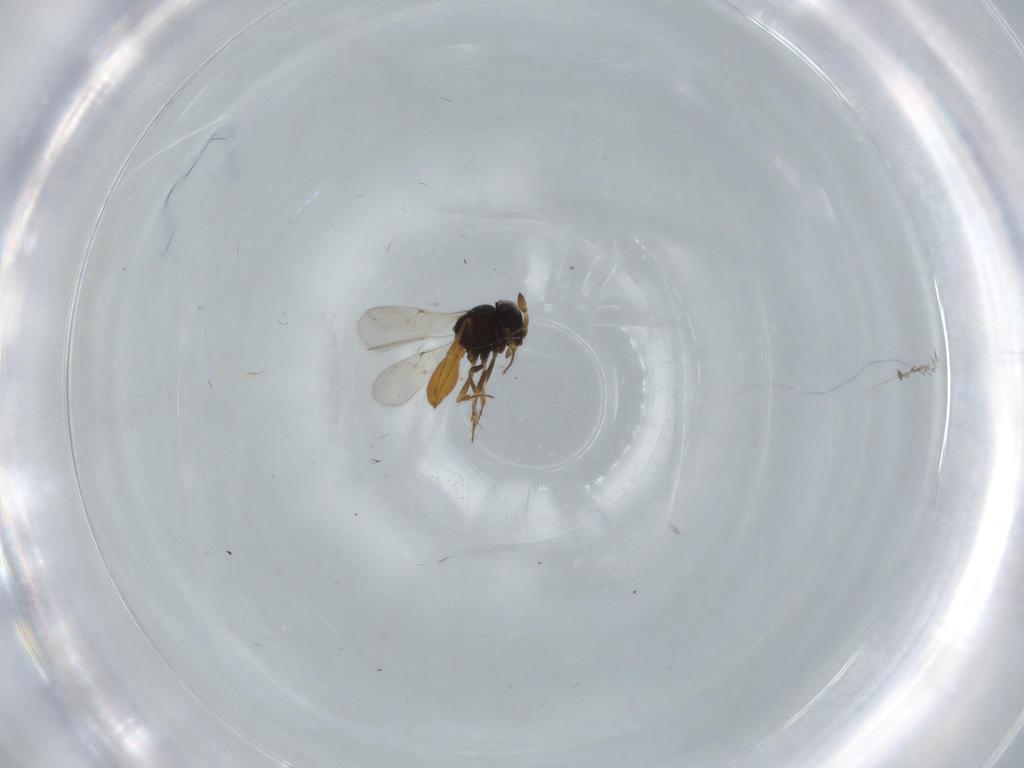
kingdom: Animalia
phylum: Arthropoda
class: Insecta
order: Hymenoptera
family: Scelionidae
